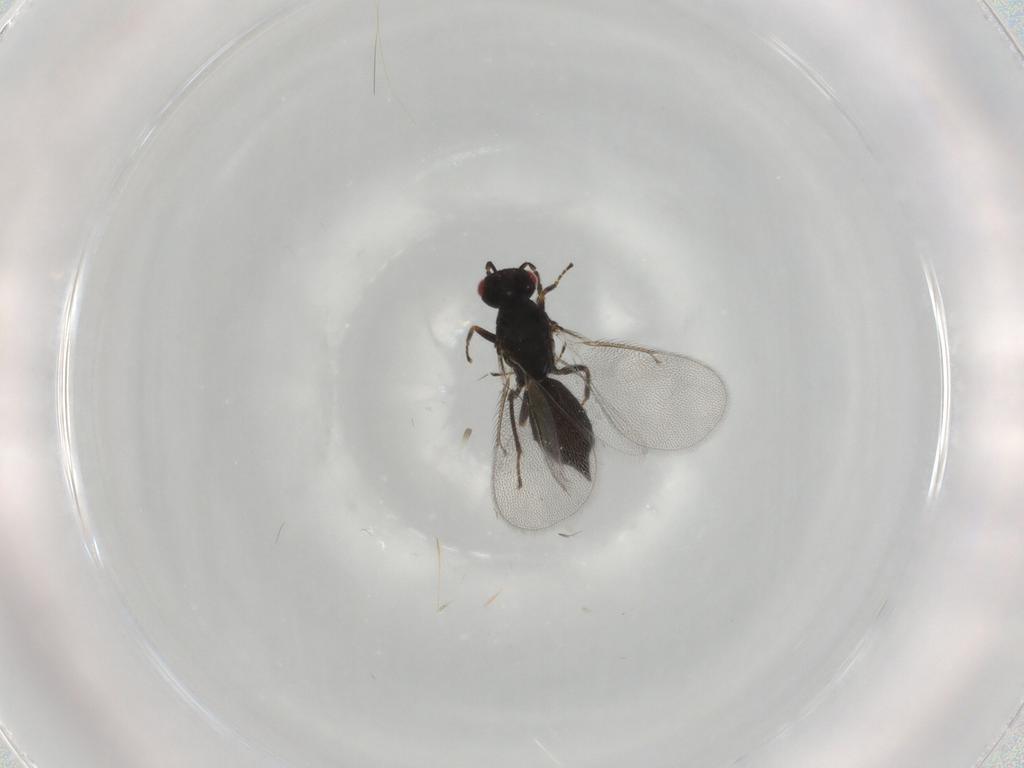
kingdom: Animalia
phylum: Arthropoda
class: Insecta
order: Hymenoptera
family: Eulophidae
